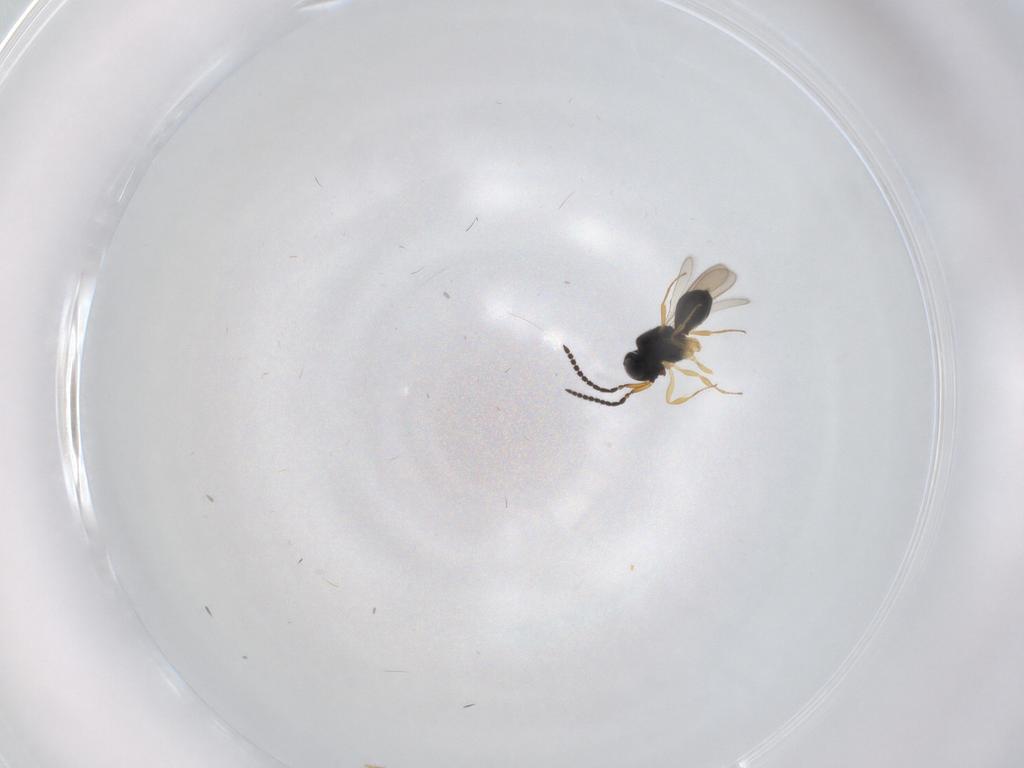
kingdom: Animalia
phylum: Arthropoda
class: Insecta
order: Hymenoptera
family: Scelionidae
